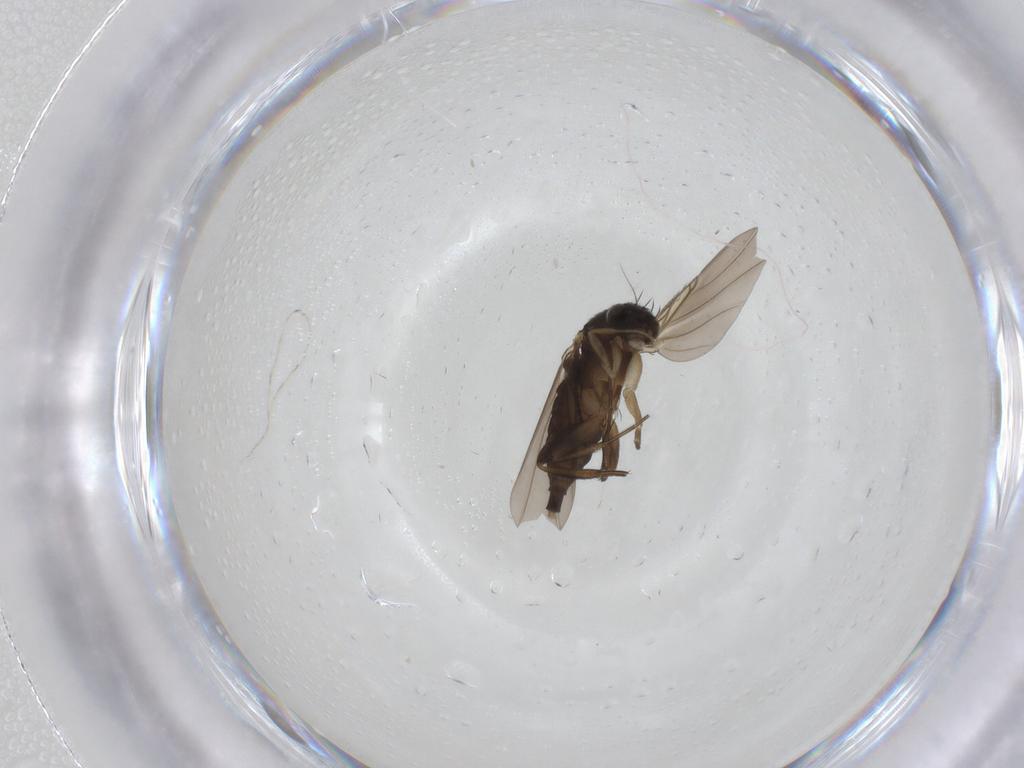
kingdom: Animalia
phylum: Arthropoda
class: Insecta
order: Diptera
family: Phoridae
